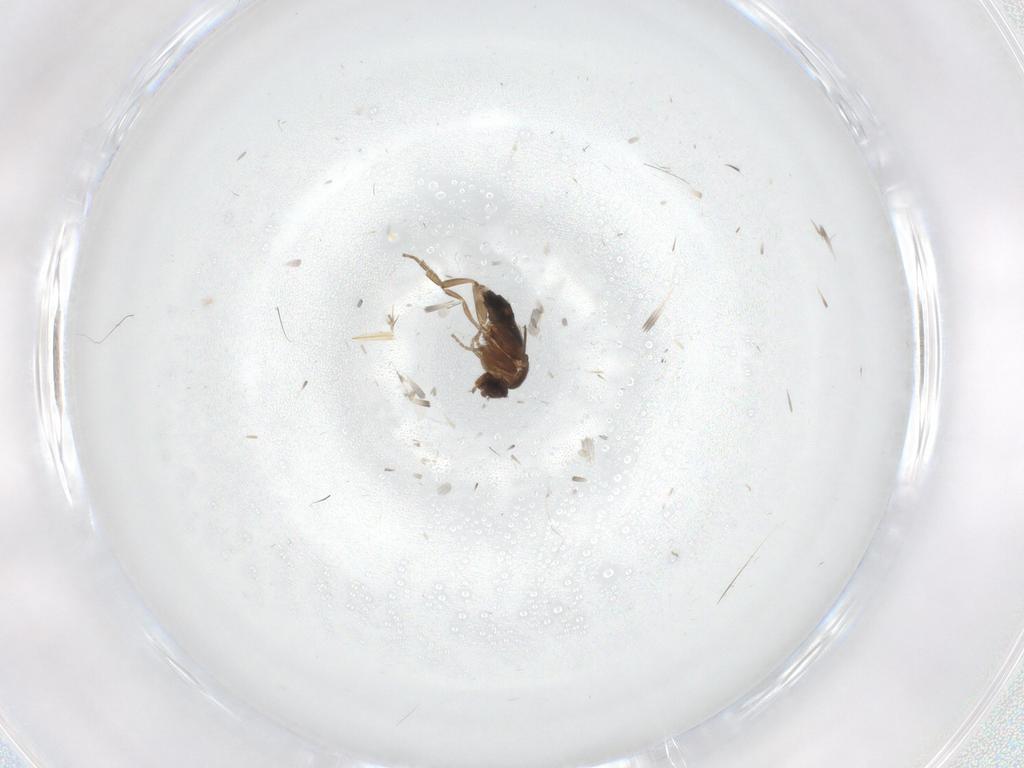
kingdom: Animalia
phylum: Arthropoda
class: Insecta
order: Diptera
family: Phoridae
